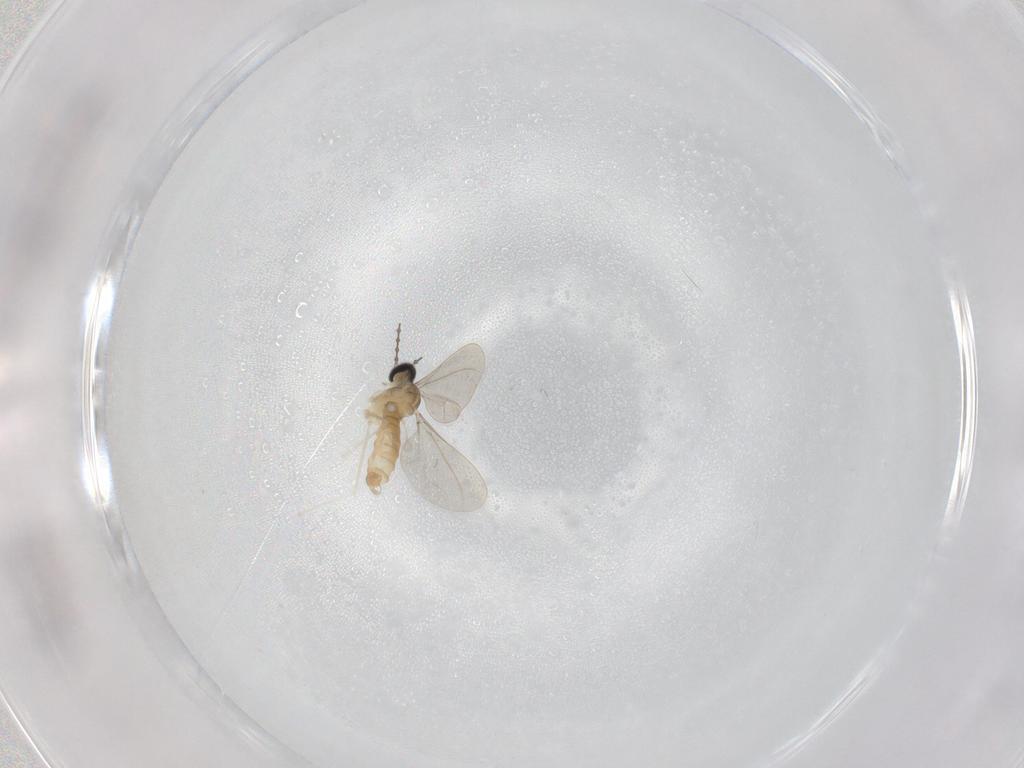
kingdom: Animalia
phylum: Arthropoda
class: Insecta
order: Diptera
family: Cecidomyiidae
